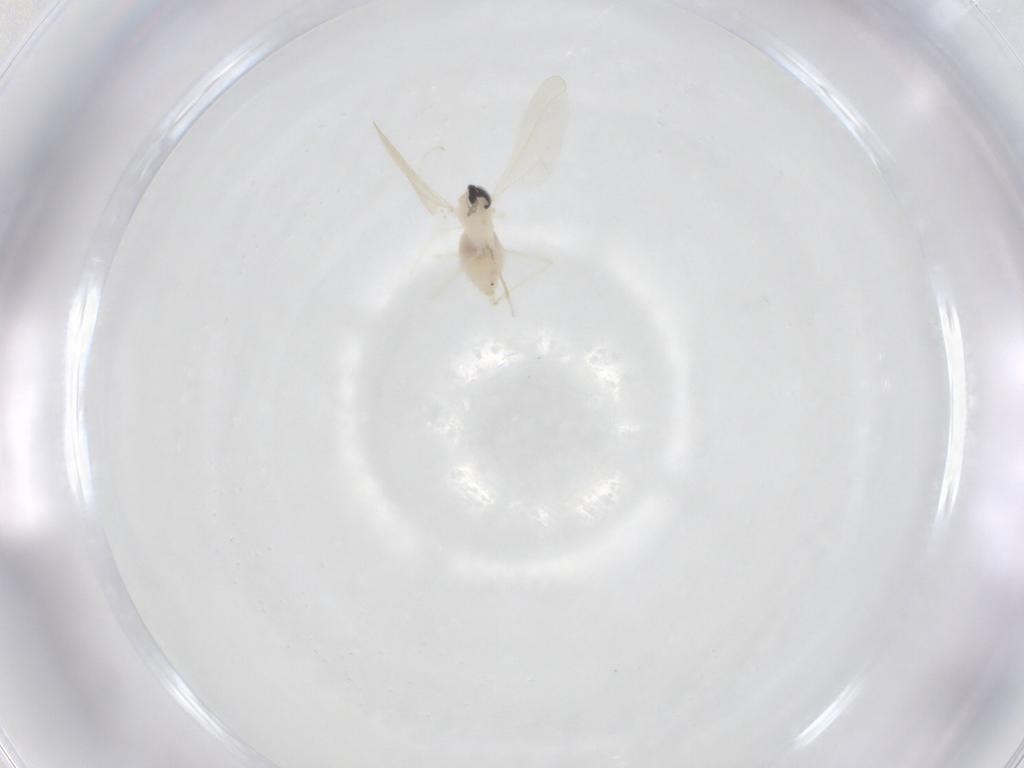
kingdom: Animalia
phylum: Arthropoda
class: Insecta
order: Diptera
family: Cecidomyiidae
